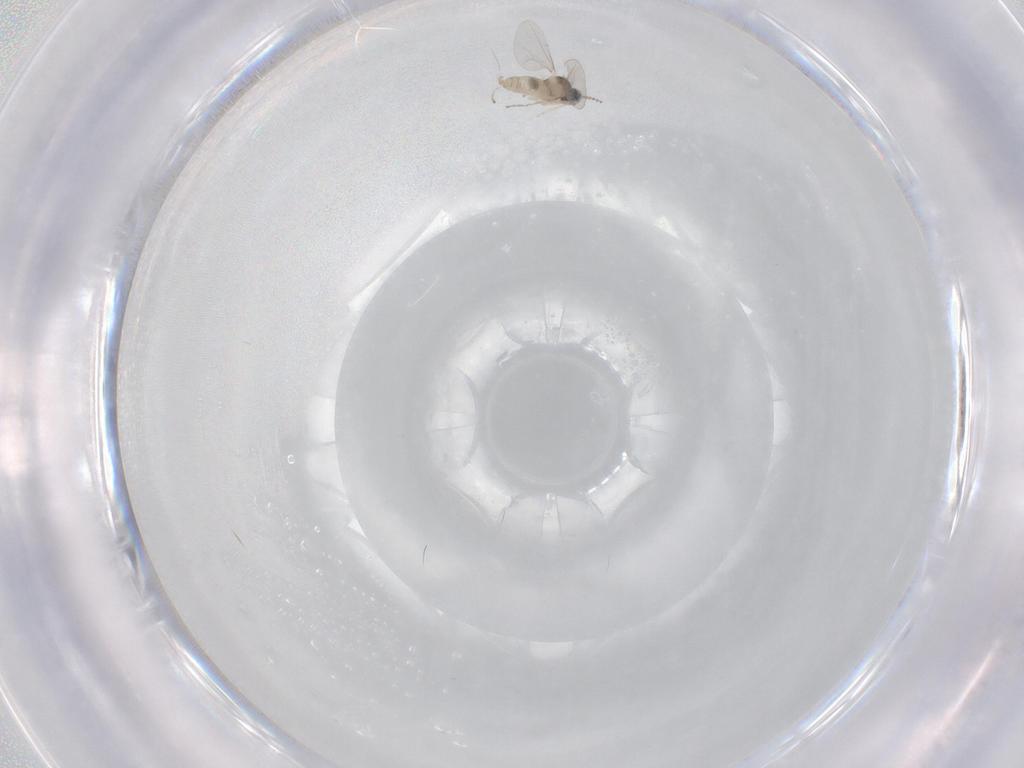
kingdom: Animalia
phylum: Arthropoda
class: Insecta
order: Diptera
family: Cecidomyiidae
